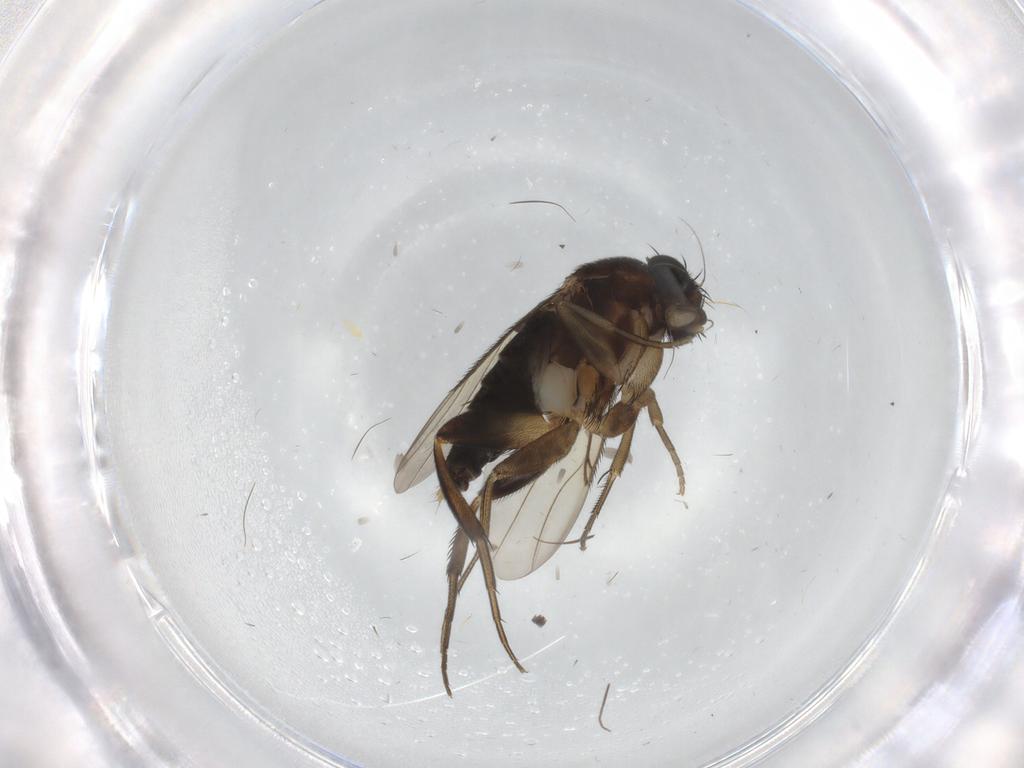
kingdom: Animalia
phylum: Arthropoda
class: Insecta
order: Diptera
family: Phoridae
